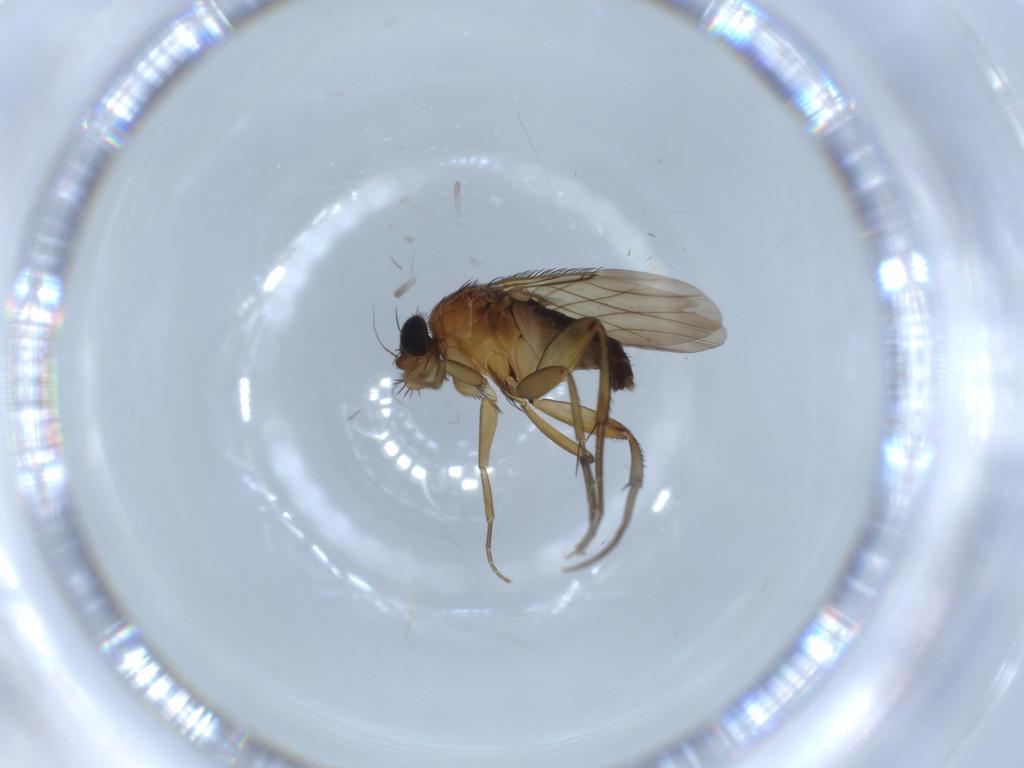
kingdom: Animalia
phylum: Arthropoda
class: Insecta
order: Diptera
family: Phoridae
